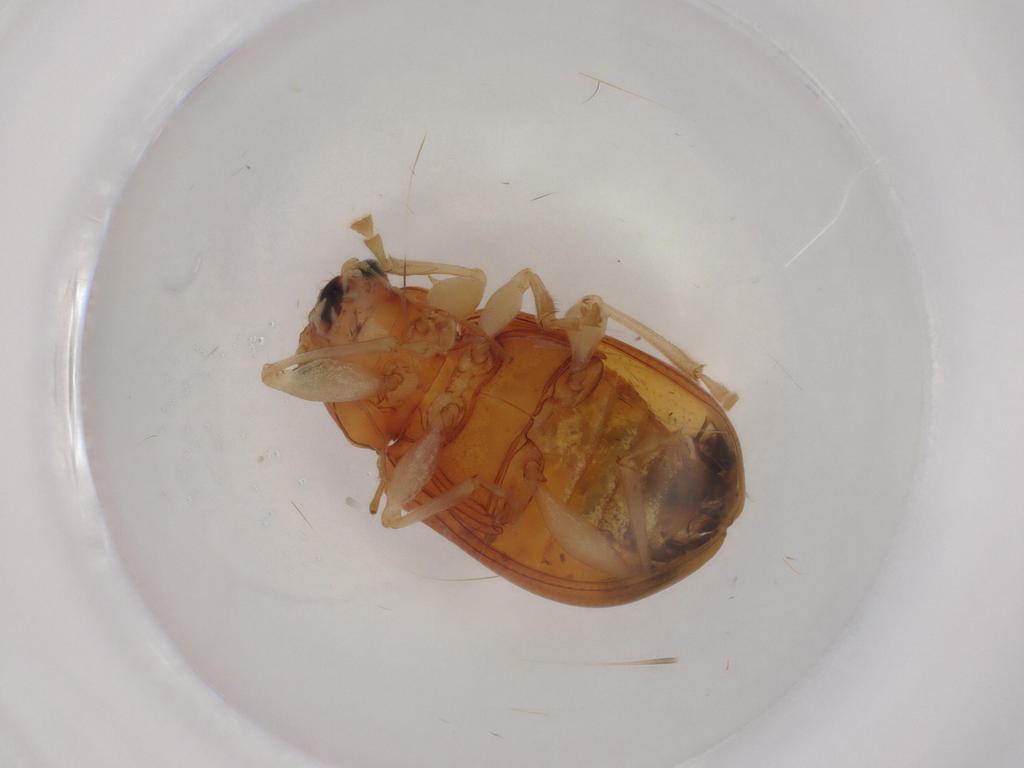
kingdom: Animalia
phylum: Arthropoda
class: Insecta
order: Coleoptera
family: Chrysomelidae
